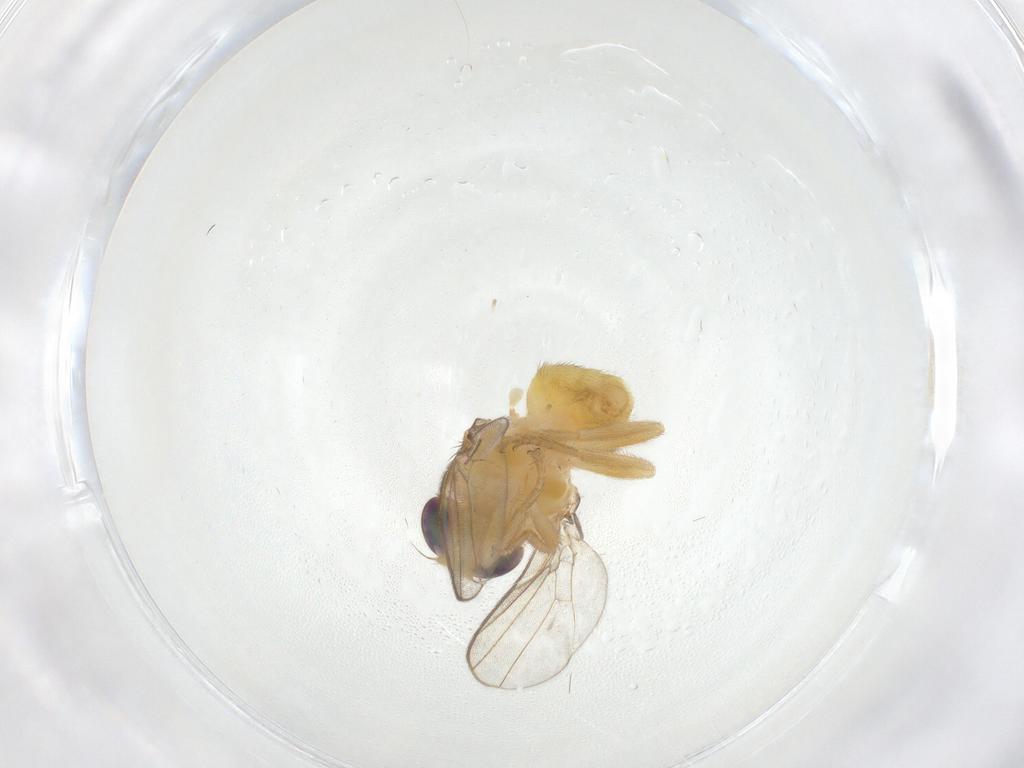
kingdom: Animalia
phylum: Arthropoda
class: Insecta
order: Diptera
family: Chloropidae
